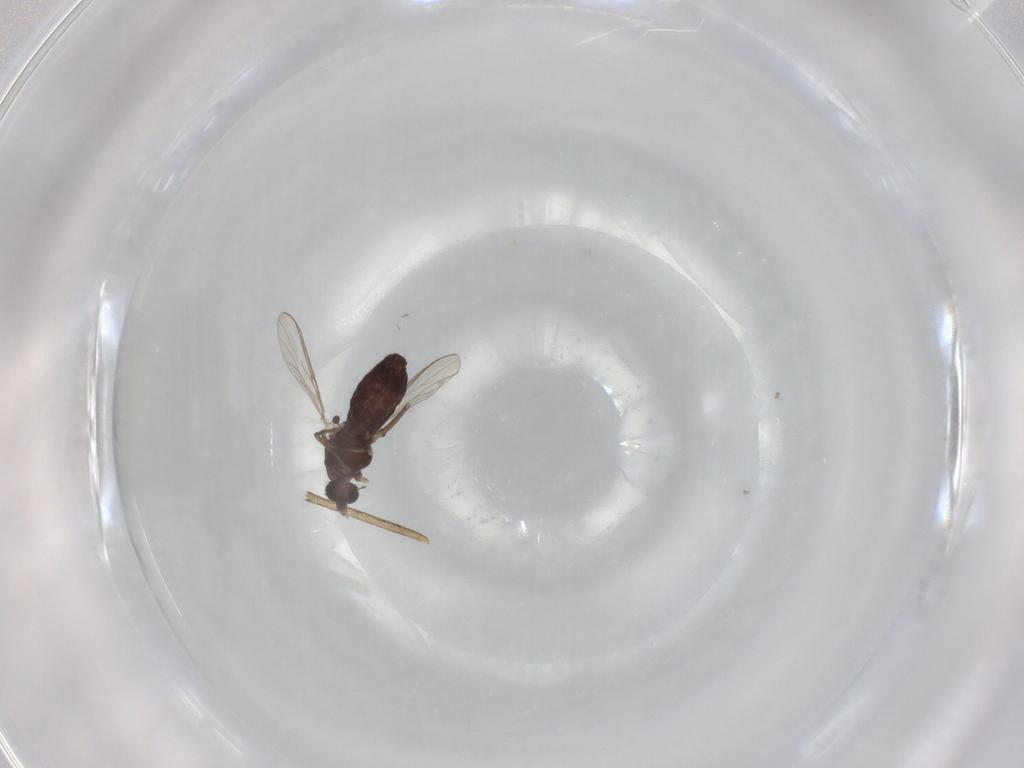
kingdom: Animalia
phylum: Arthropoda
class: Insecta
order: Diptera
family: Chironomidae
